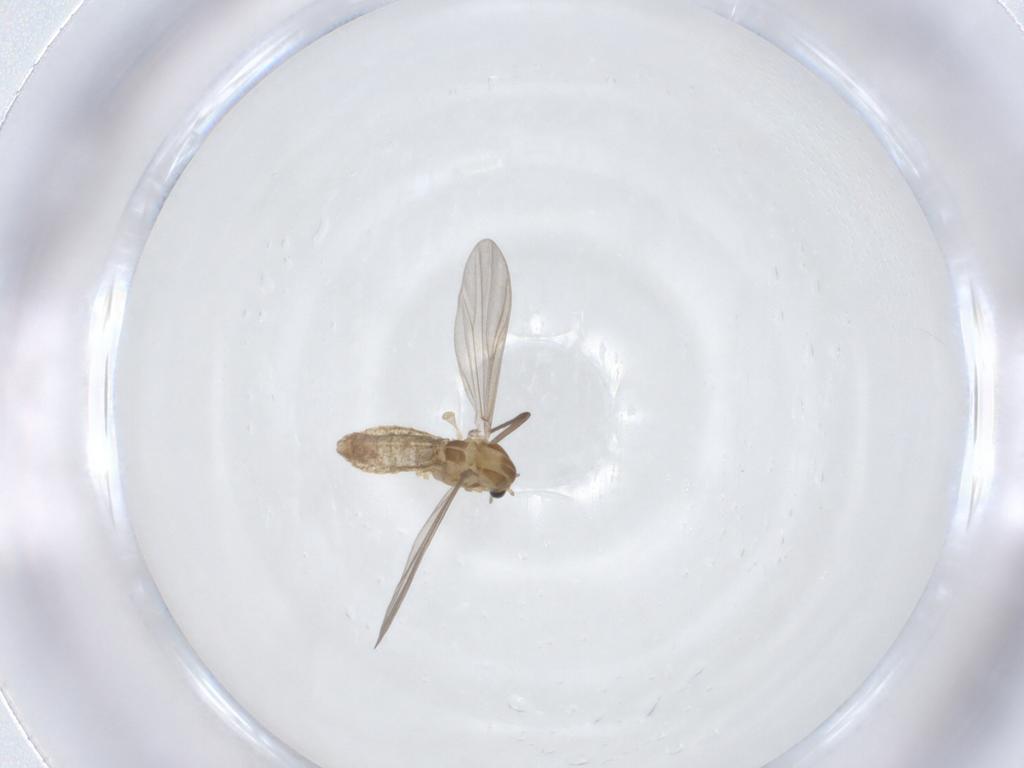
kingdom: Animalia
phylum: Arthropoda
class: Insecta
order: Diptera
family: Chironomidae
